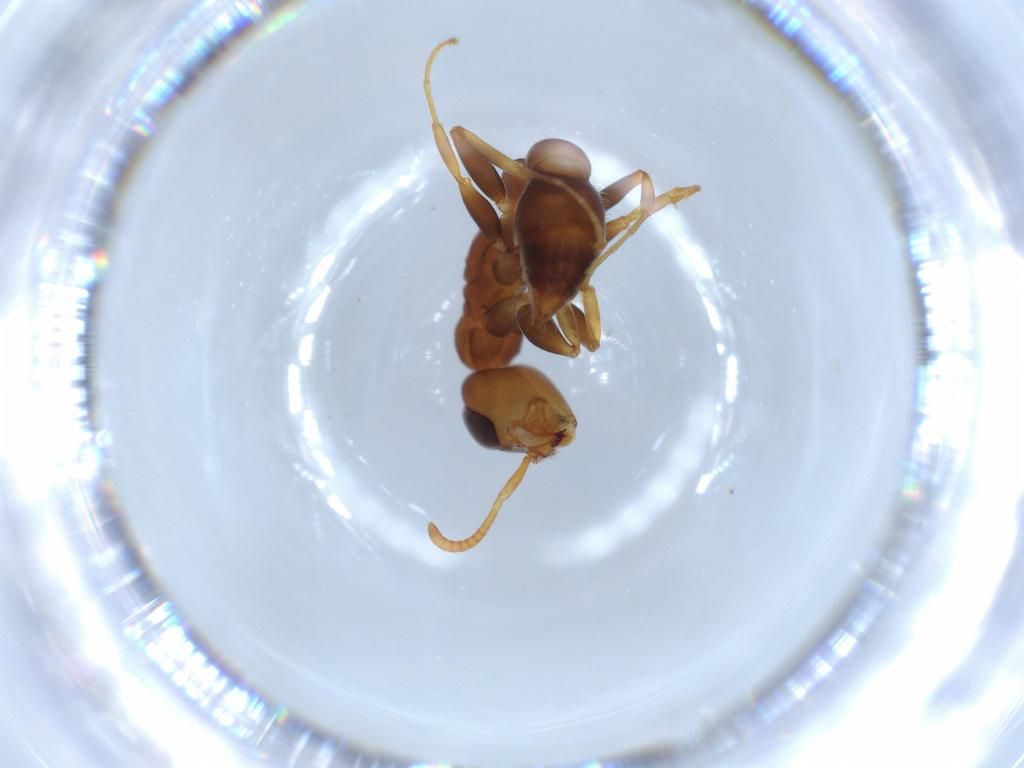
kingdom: Animalia
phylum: Arthropoda
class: Insecta
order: Hymenoptera
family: Formicidae
